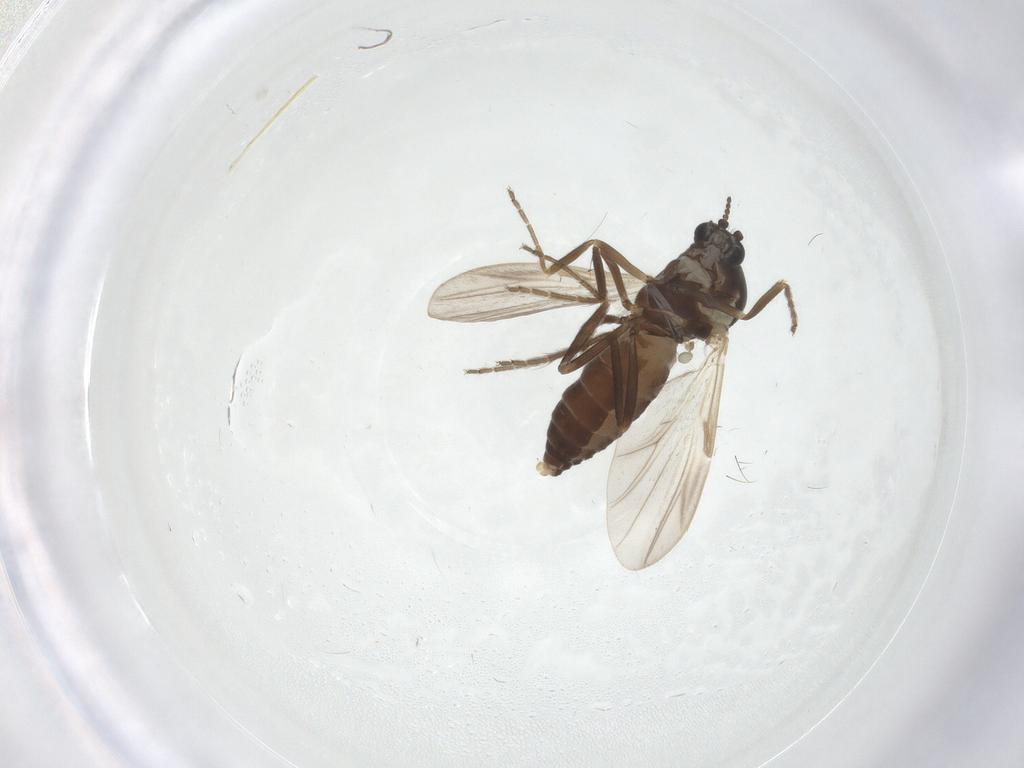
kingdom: Animalia
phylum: Arthropoda
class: Insecta
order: Diptera
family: Ceratopogonidae
